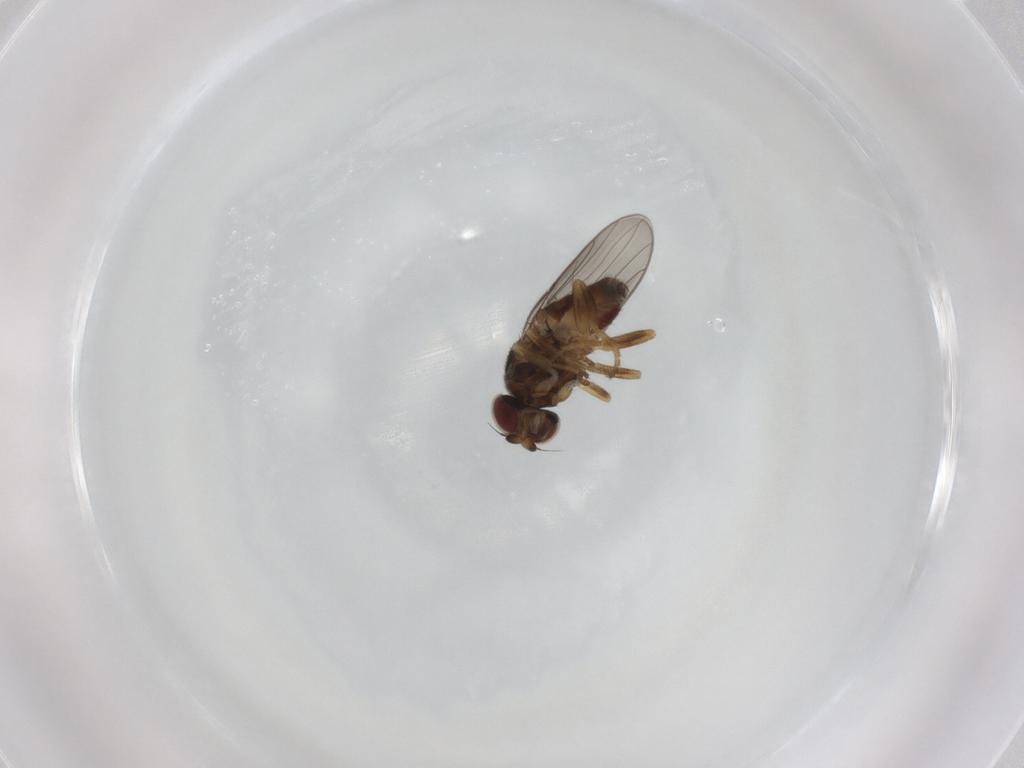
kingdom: Animalia
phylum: Arthropoda
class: Insecta
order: Diptera
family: Chloropidae
